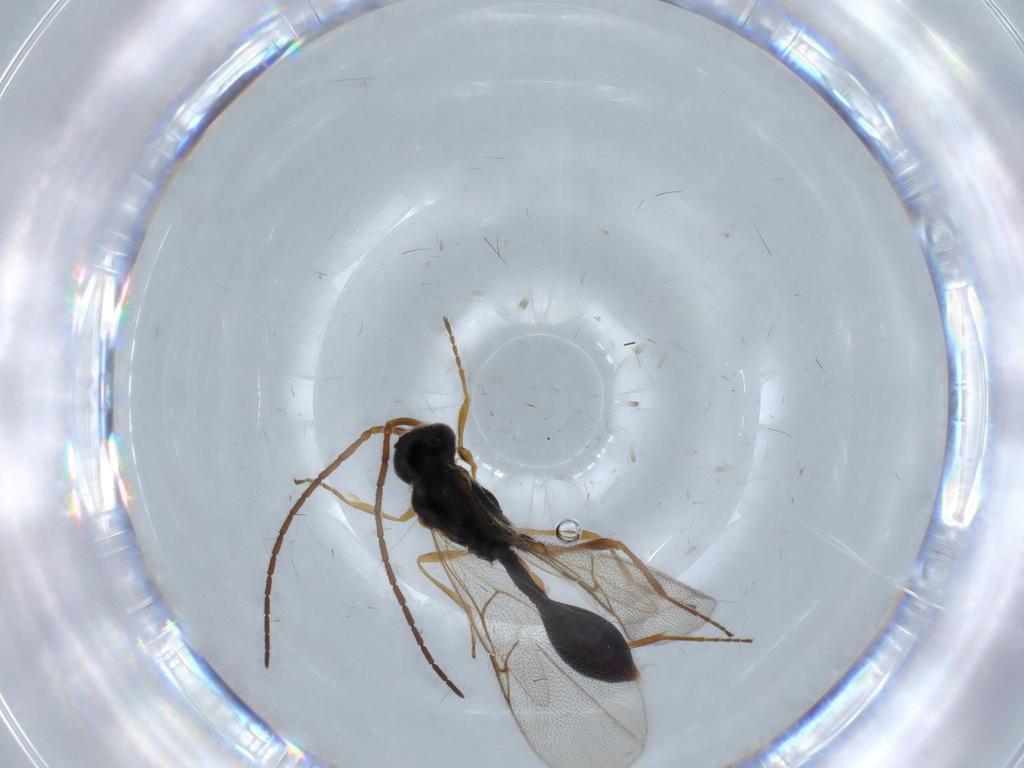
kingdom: Animalia
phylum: Arthropoda
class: Insecta
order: Hymenoptera
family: Diapriidae
